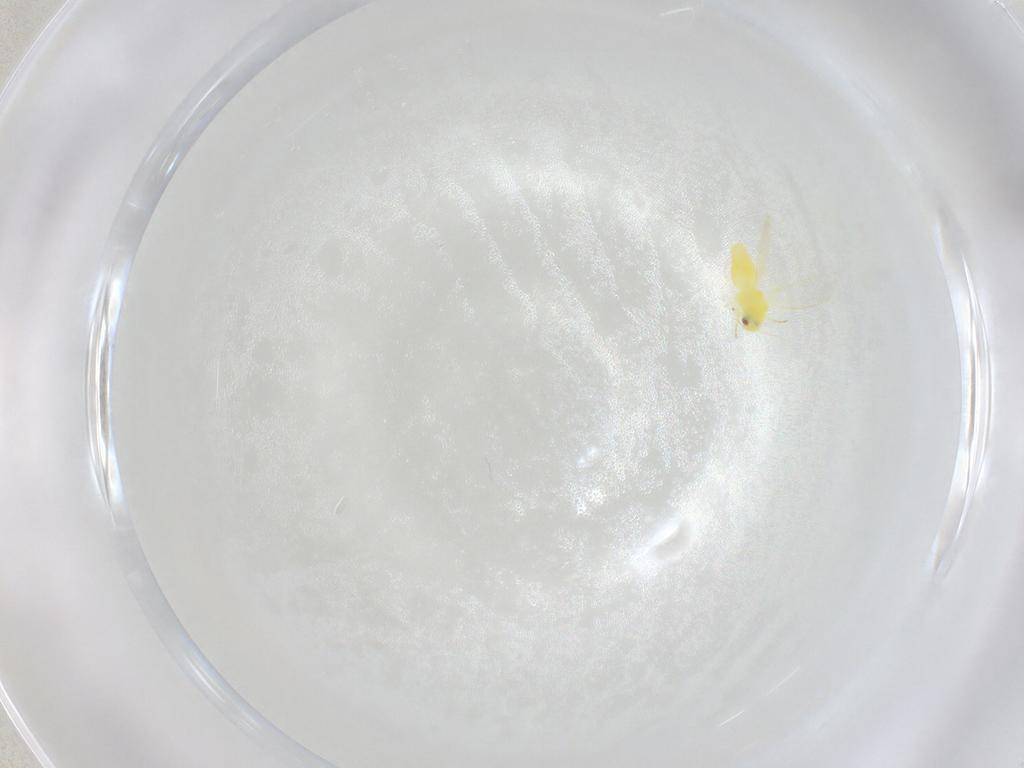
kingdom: Animalia
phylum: Arthropoda
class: Insecta
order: Hemiptera
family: Aleyrodidae
